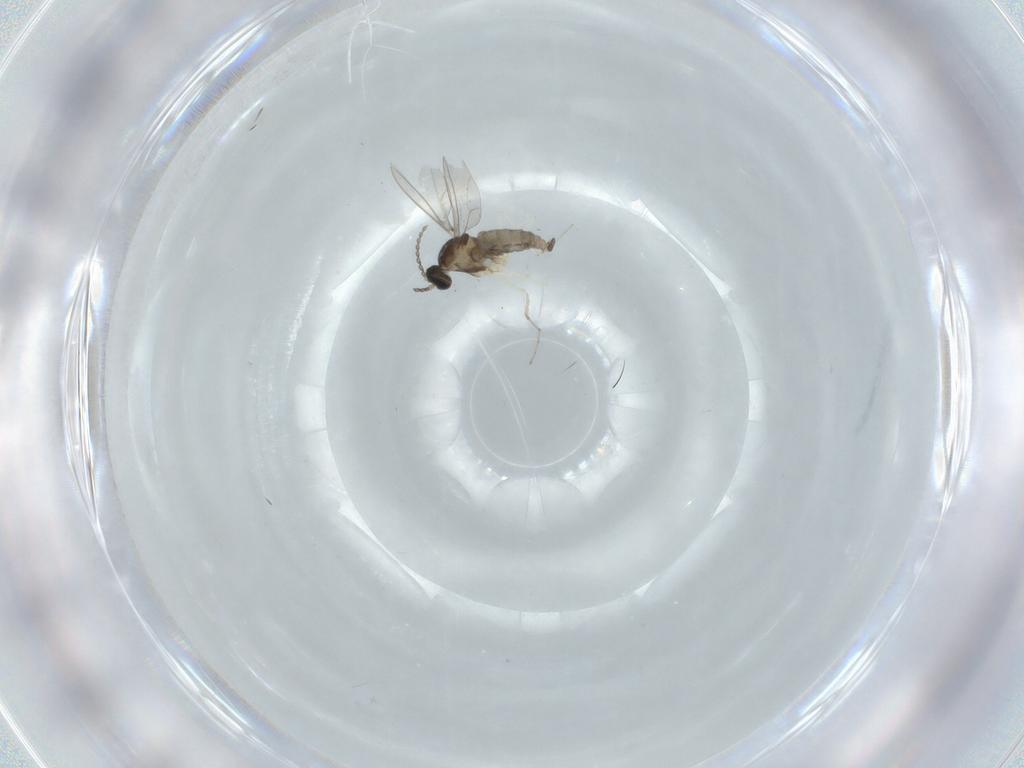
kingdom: Animalia
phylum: Arthropoda
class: Insecta
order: Diptera
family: Cecidomyiidae
